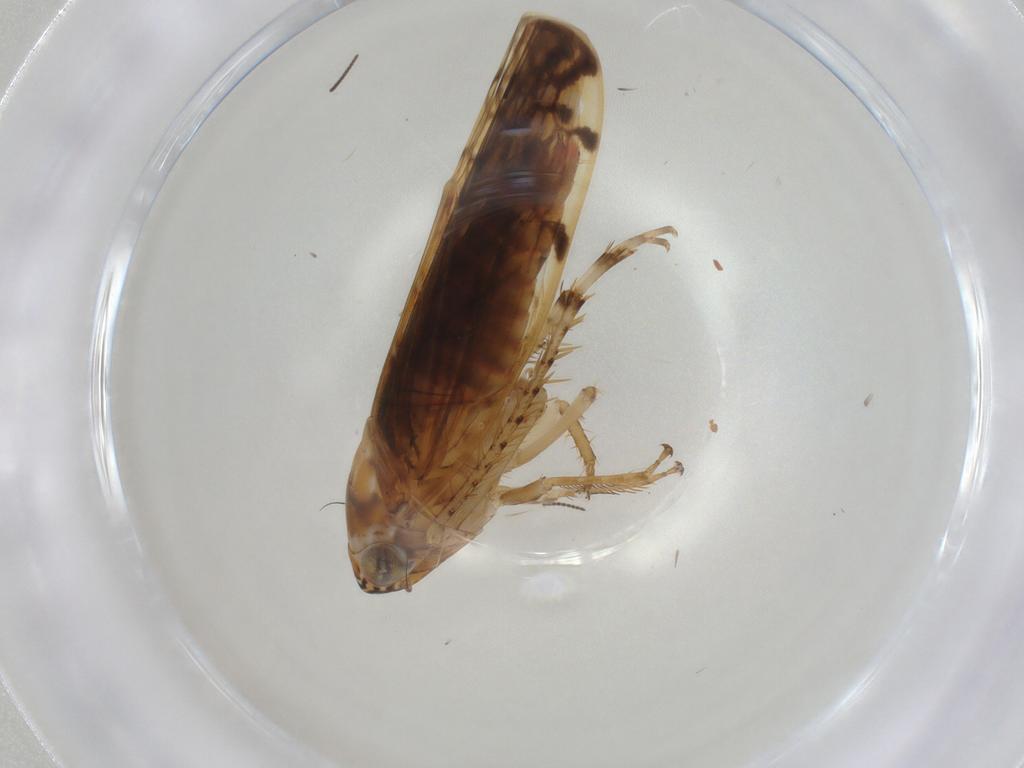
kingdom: Animalia
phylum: Arthropoda
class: Insecta
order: Hemiptera
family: Cicadellidae
